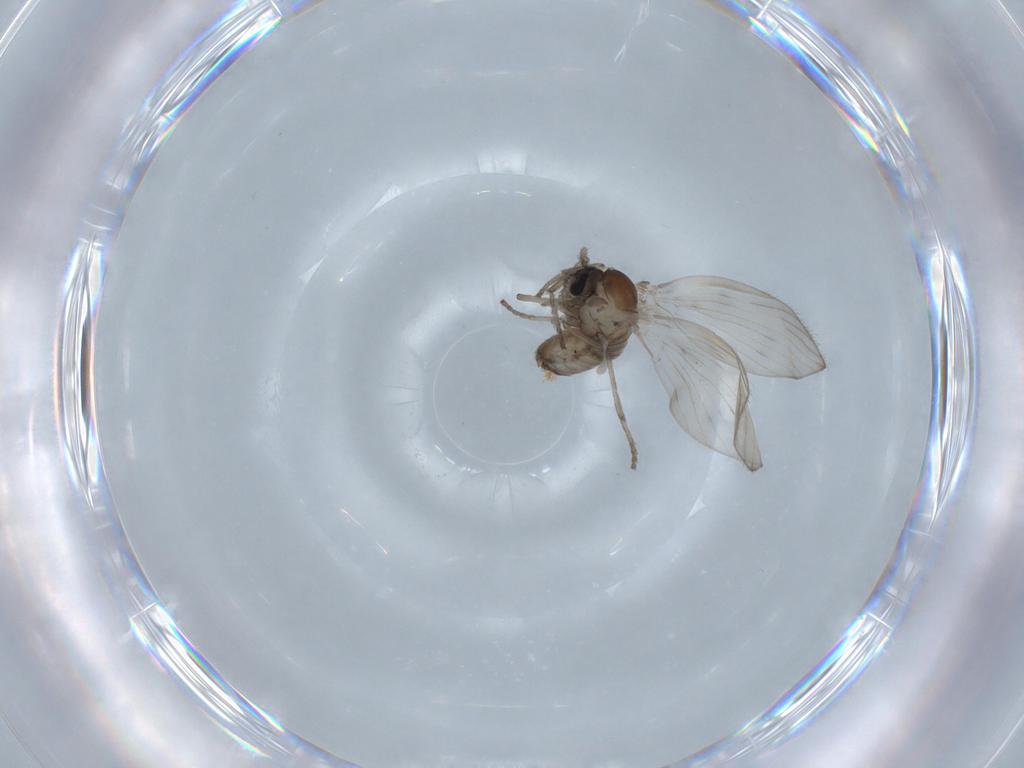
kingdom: Animalia
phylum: Arthropoda
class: Insecta
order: Diptera
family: Psychodidae
